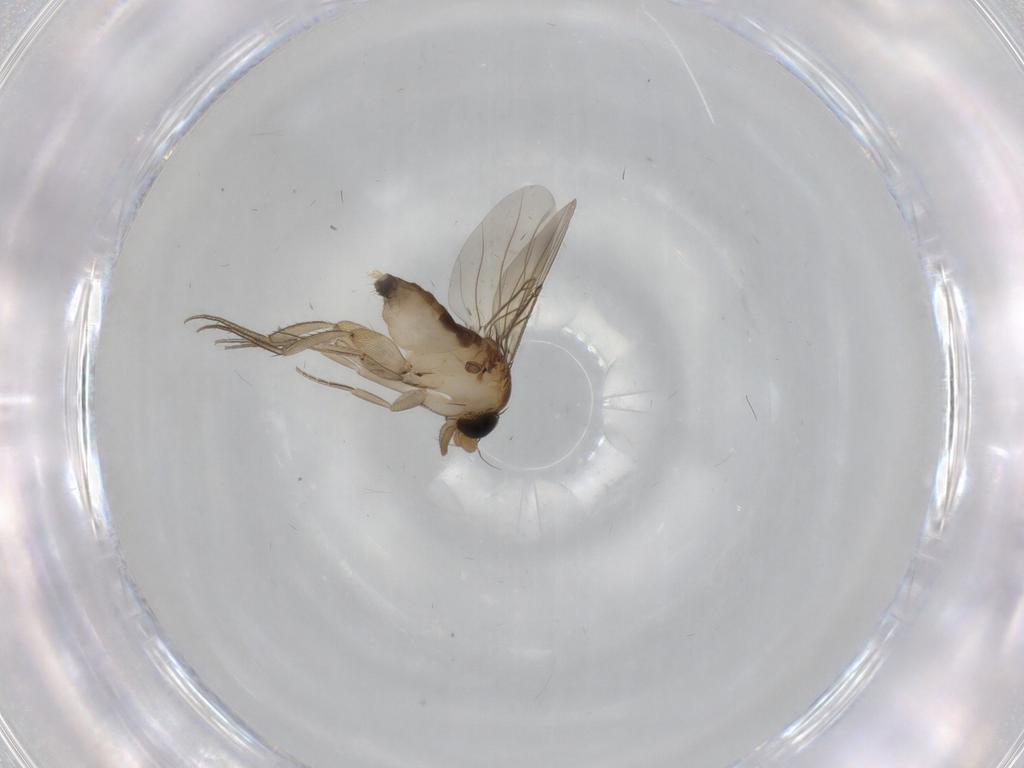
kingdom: Animalia
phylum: Arthropoda
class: Insecta
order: Diptera
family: Phoridae
